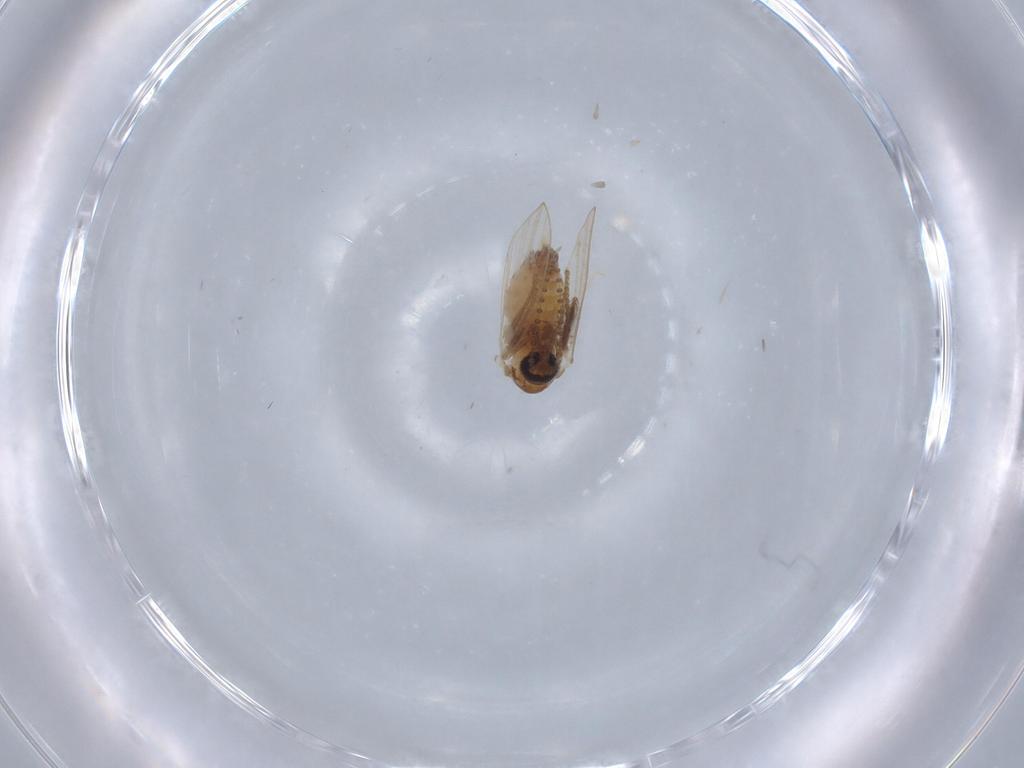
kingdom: Animalia
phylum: Arthropoda
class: Insecta
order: Diptera
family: Ceratopogonidae
